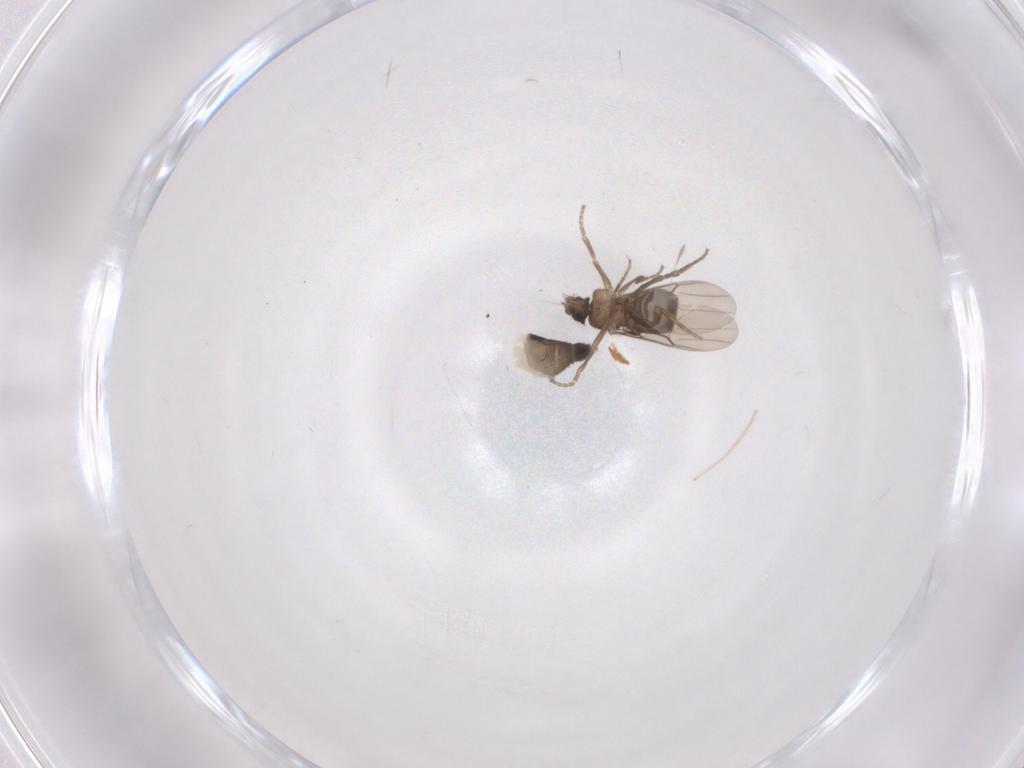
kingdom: Animalia
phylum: Arthropoda
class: Insecta
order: Diptera
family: Phoridae
